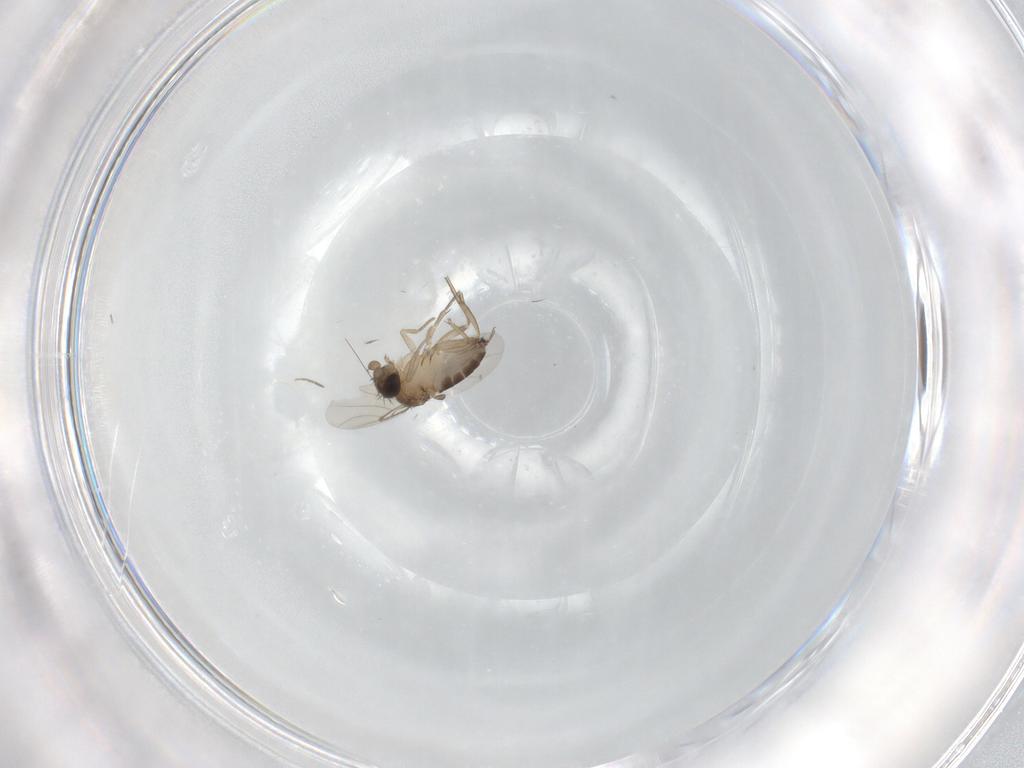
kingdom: Animalia
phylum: Arthropoda
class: Insecta
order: Diptera
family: Phoridae
